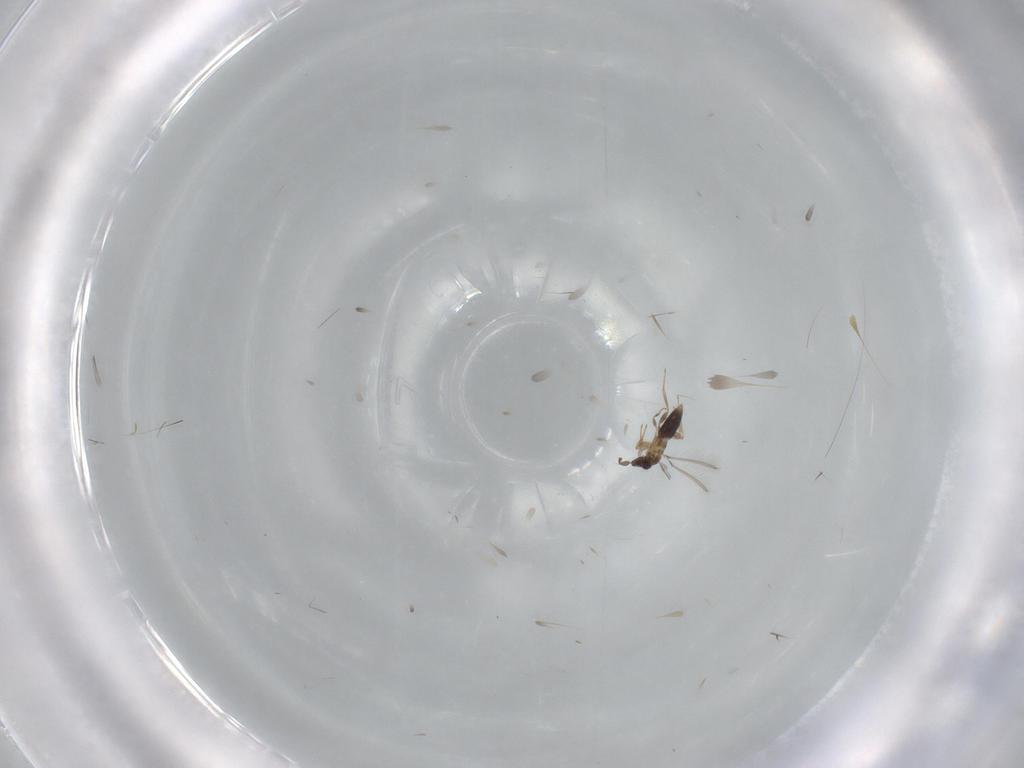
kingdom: Animalia
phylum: Arthropoda
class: Insecta
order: Hymenoptera
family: Mymaridae
